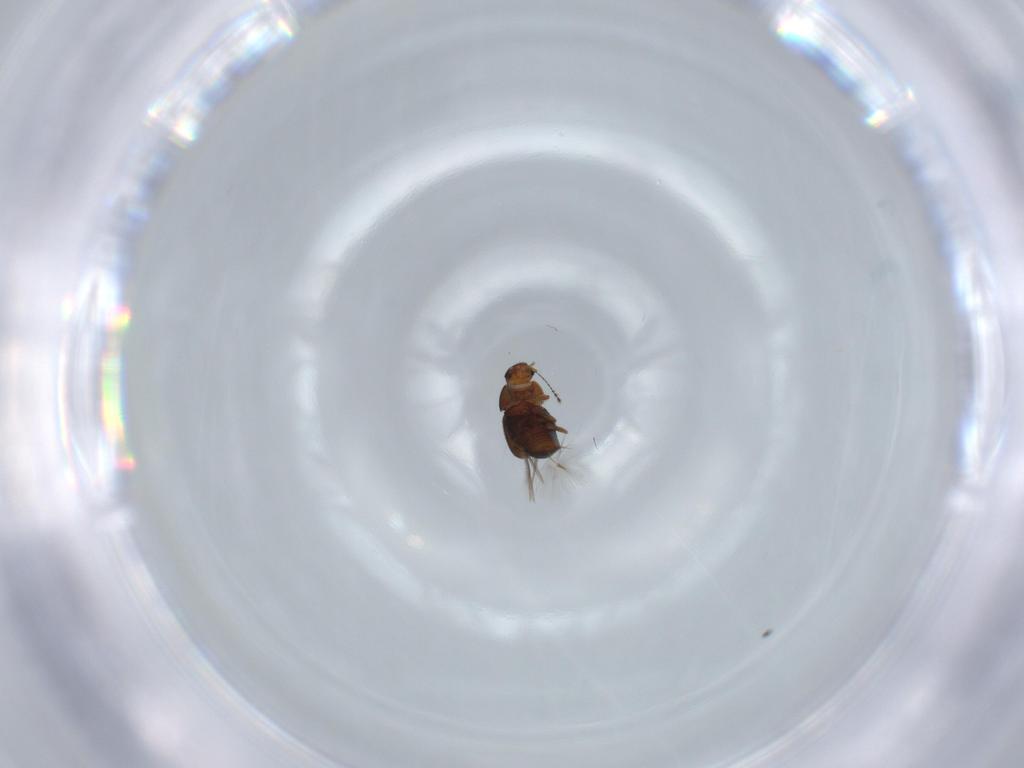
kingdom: Animalia
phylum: Arthropoda
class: Insecta
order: Coleoptera
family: Ptiliidae
